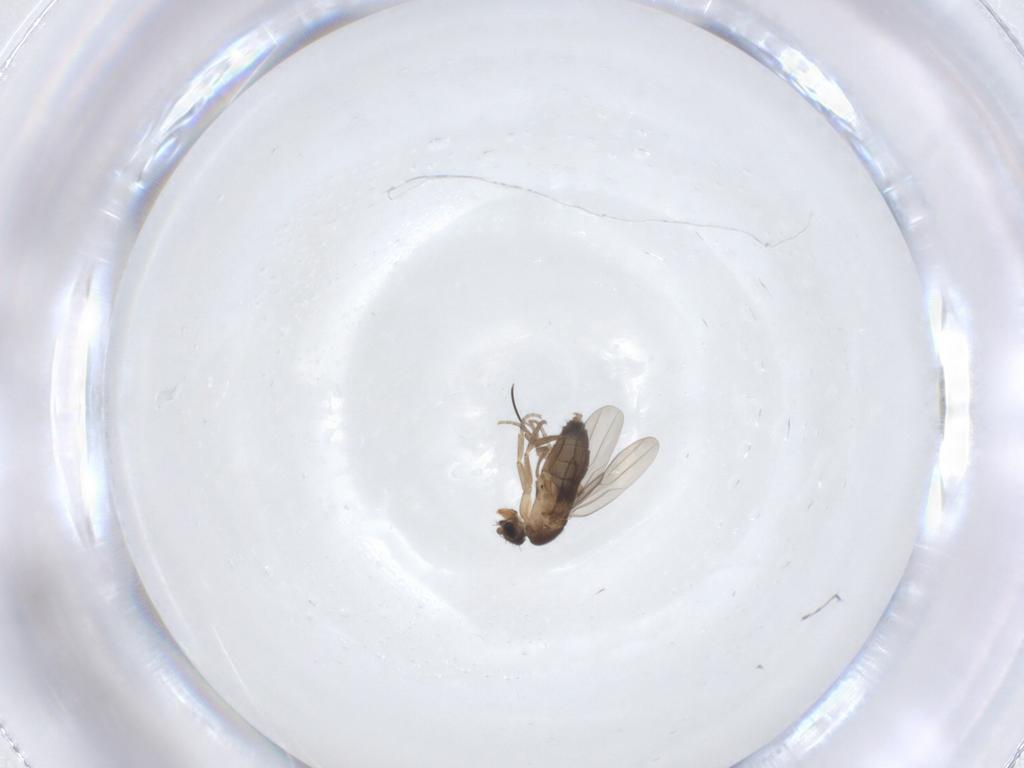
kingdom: Animalia
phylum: Arthropoda
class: Insecta
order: Diptera
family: Phoridae
